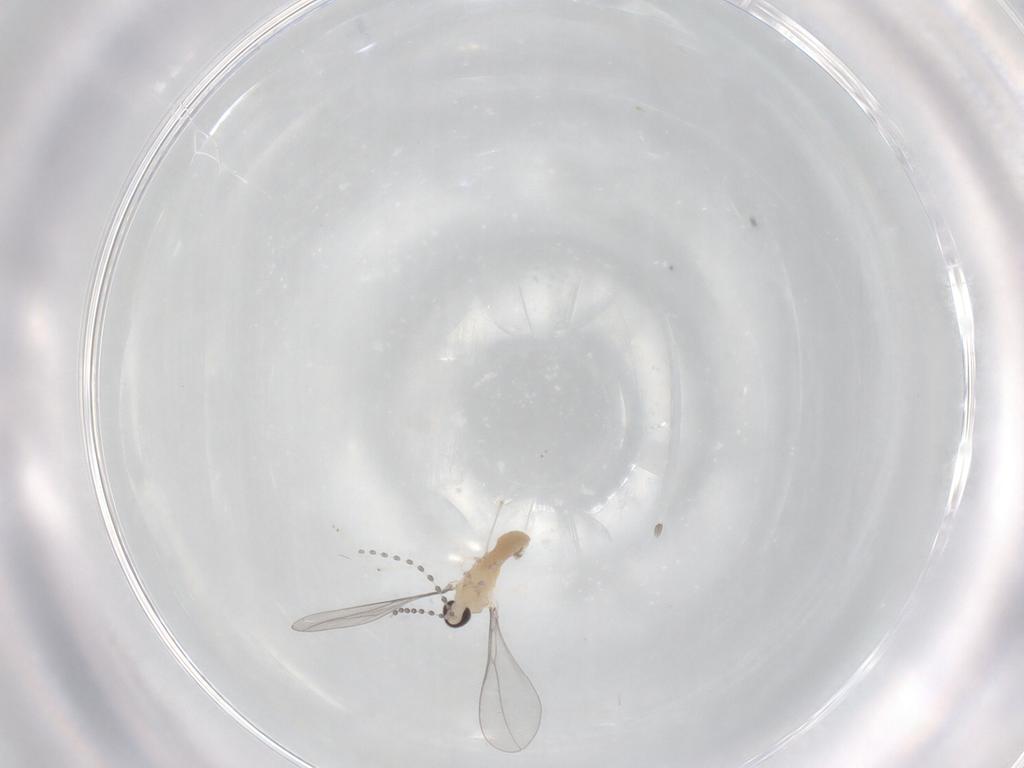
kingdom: Animalia
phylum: Arthropoda
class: Insecta
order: Diptera
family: Cecidomyiidae
